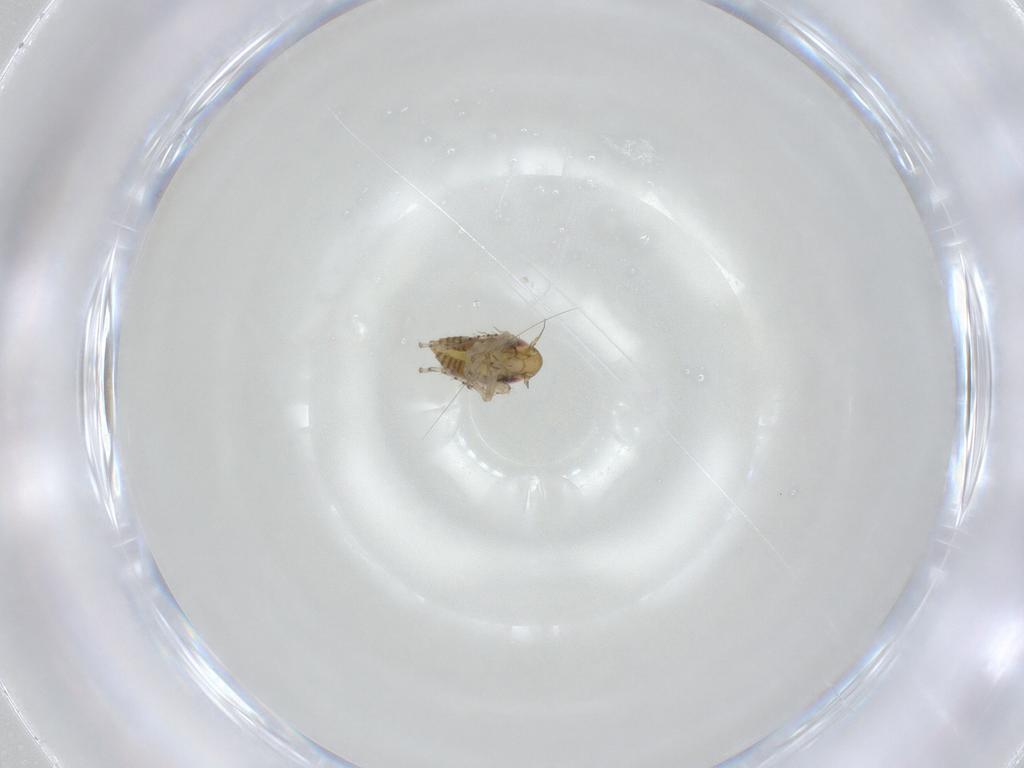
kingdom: Animalia
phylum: Arthropoda
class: Insecta
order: Hemiptera
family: Cicadellidae
